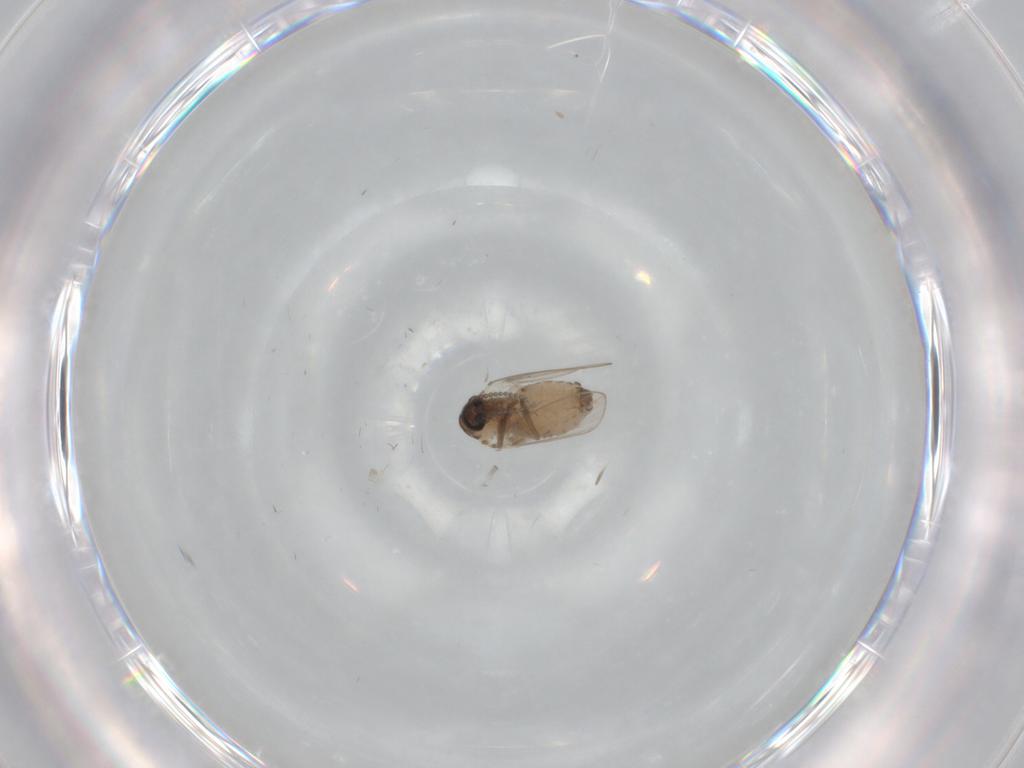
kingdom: Animalia
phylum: Arthropoda
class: Insecta
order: Diptera
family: Psychodidae
